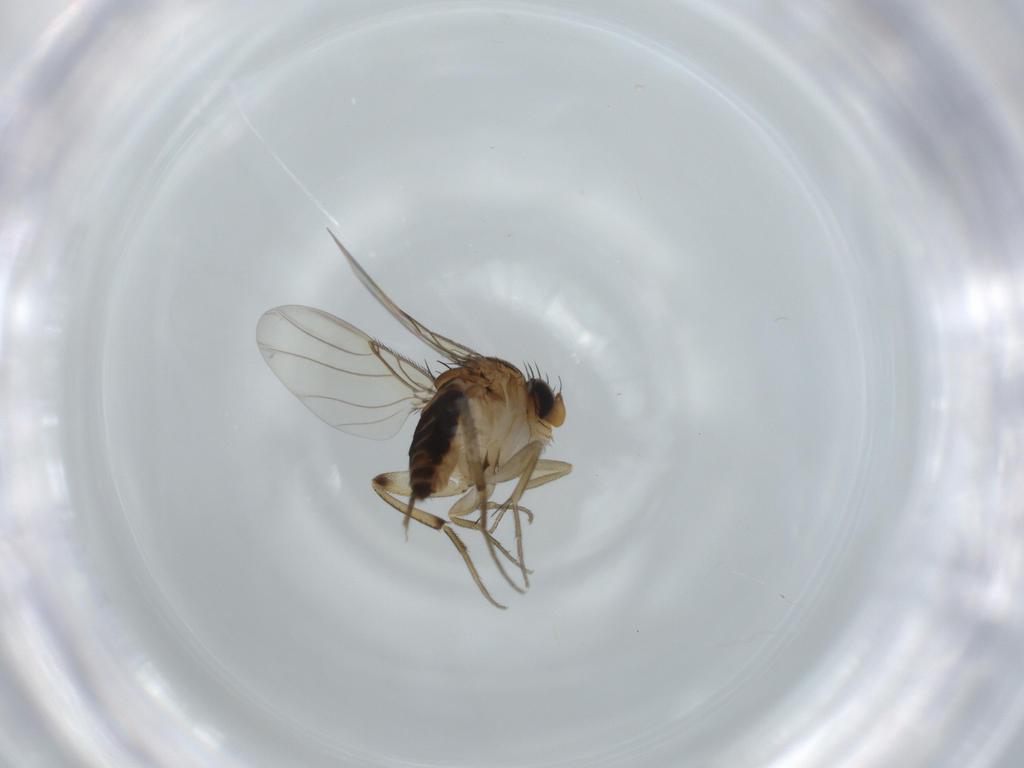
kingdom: Animalia
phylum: Arthropoda
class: Insecta
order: Diptera
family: Phoridae
